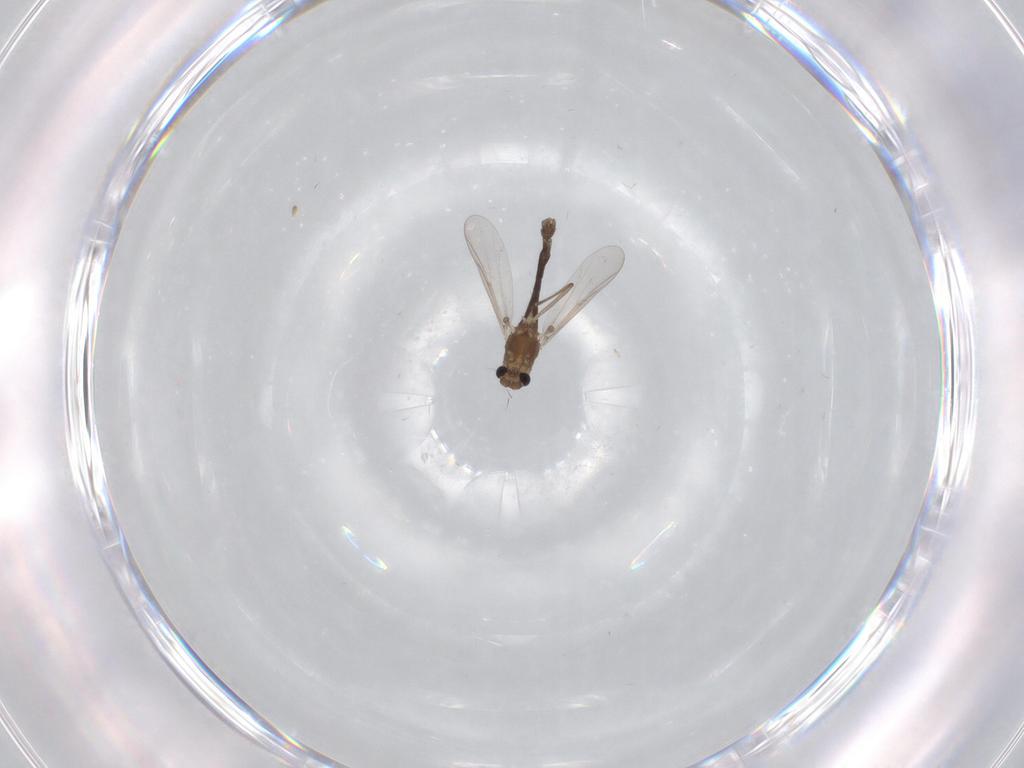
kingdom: Animalia
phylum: Arthropoda
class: Insecta
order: Diptera
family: Chironomidae
